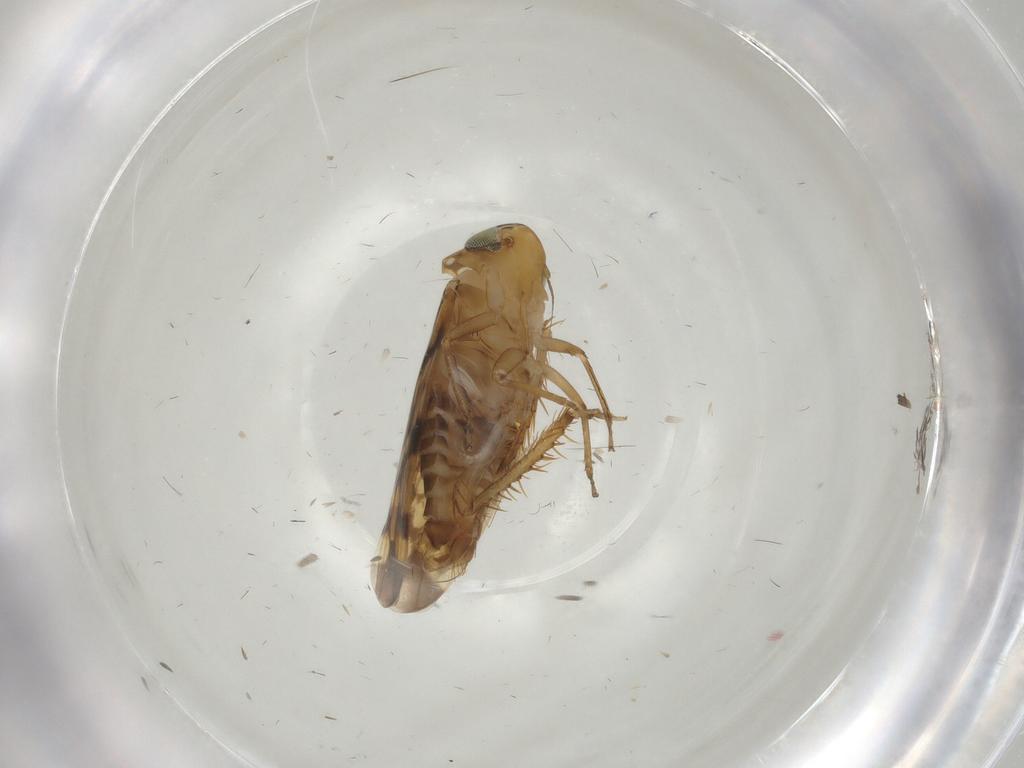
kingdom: Animalia
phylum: Arthropoda
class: Insecta
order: Hemiptera
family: Cicadellidae
